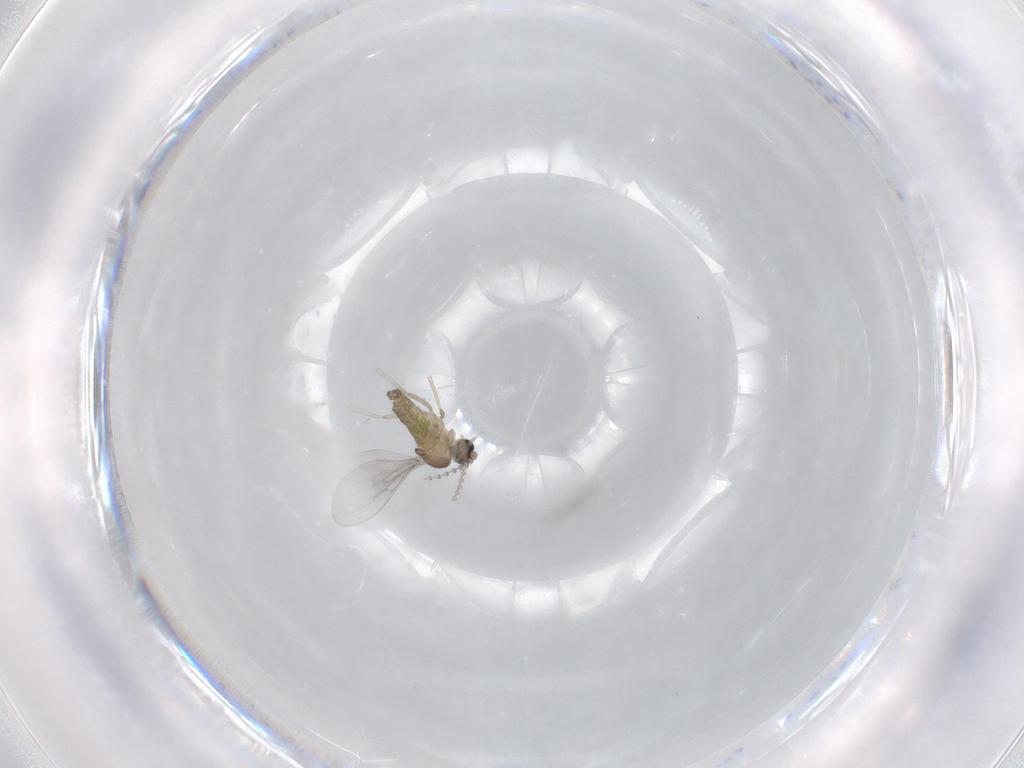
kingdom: Animalia
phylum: Arthropoda
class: Insecta
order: Diptera
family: Cecidomyiidae
